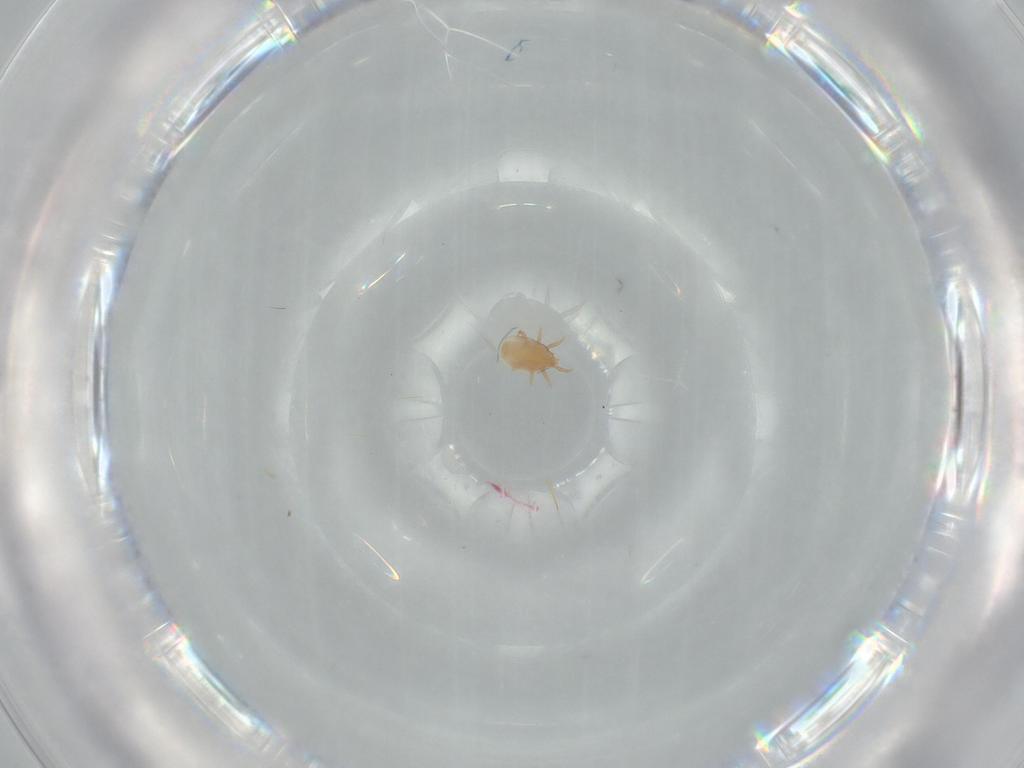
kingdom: Animalia
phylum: Arthropoda
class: Arachnida
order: Mesostigmata
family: Dinychidae
